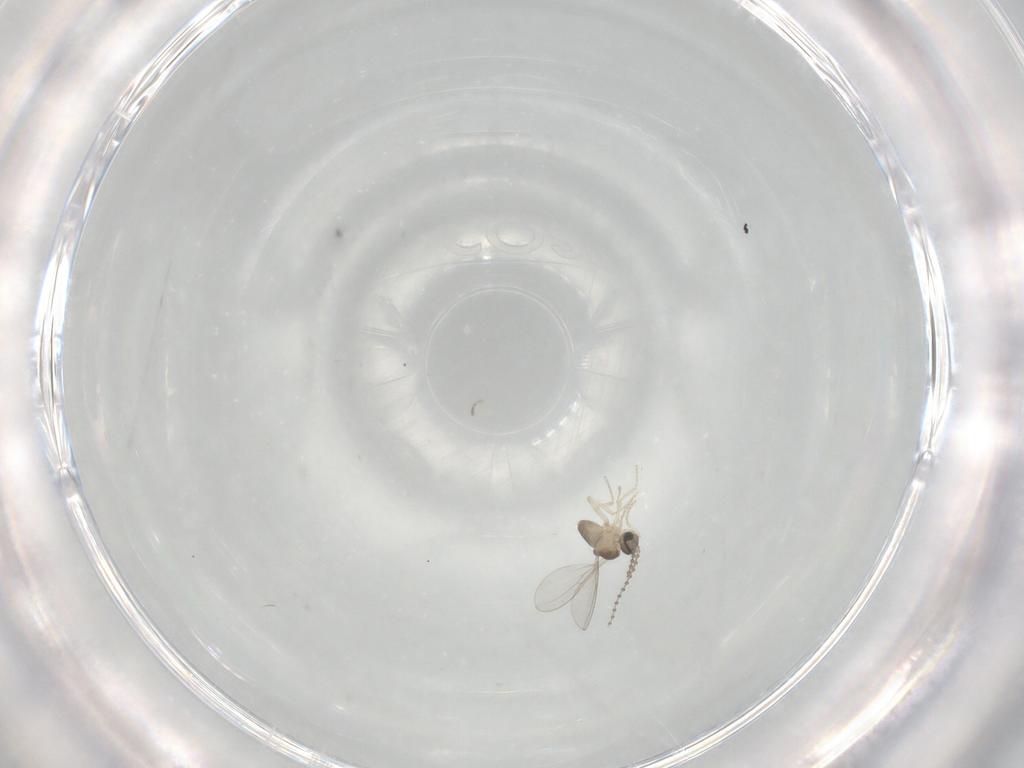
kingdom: Animalia
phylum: Arthropoda
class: Insecta
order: Diptera
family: Cecidomyiidae
